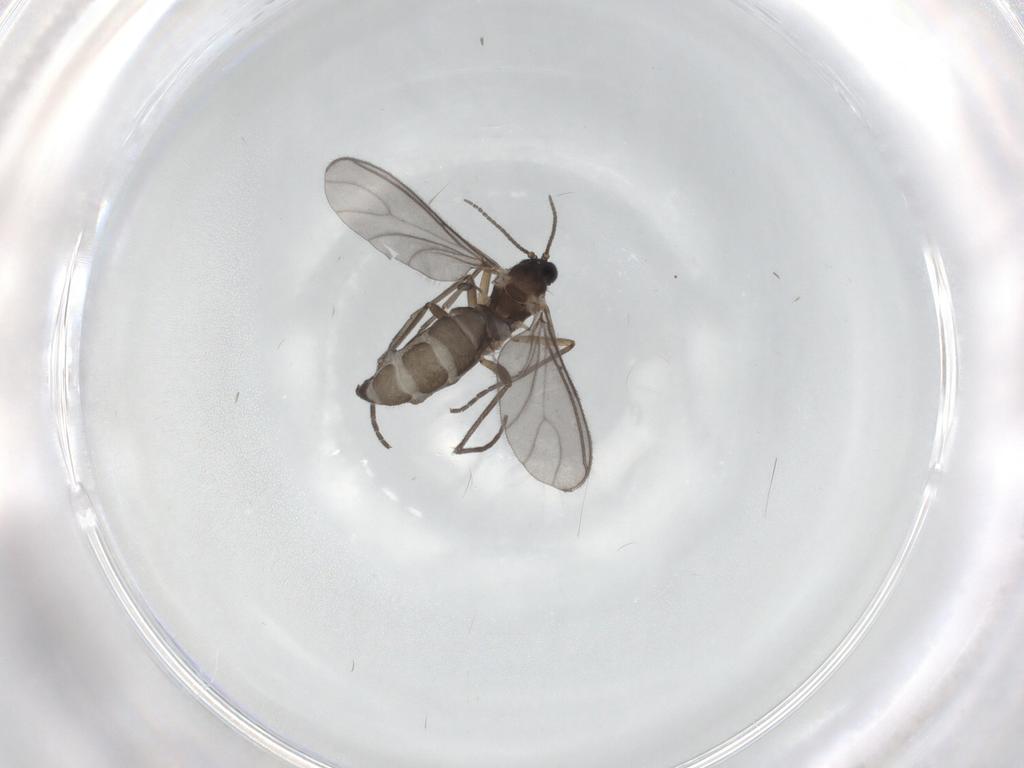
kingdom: Animalia
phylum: Arthropoda
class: Insecta
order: Diptera
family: Sciaridae
